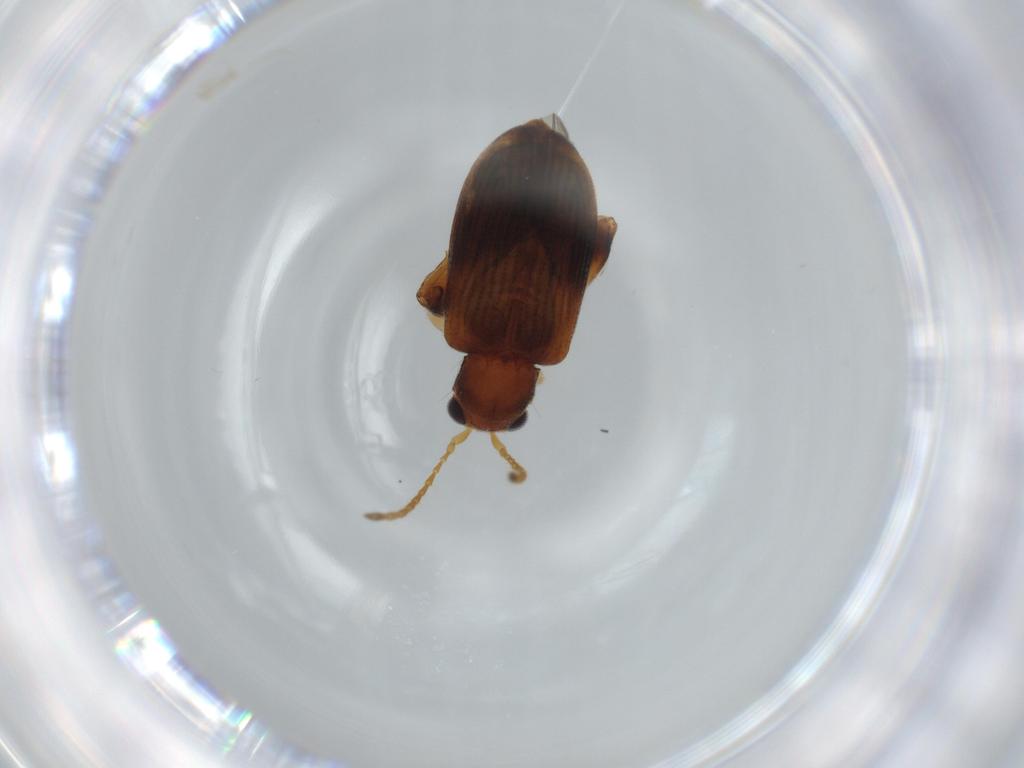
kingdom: Animalia
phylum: Arthropoda
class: Insecta
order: Coleoptera
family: Chrysomelidae
